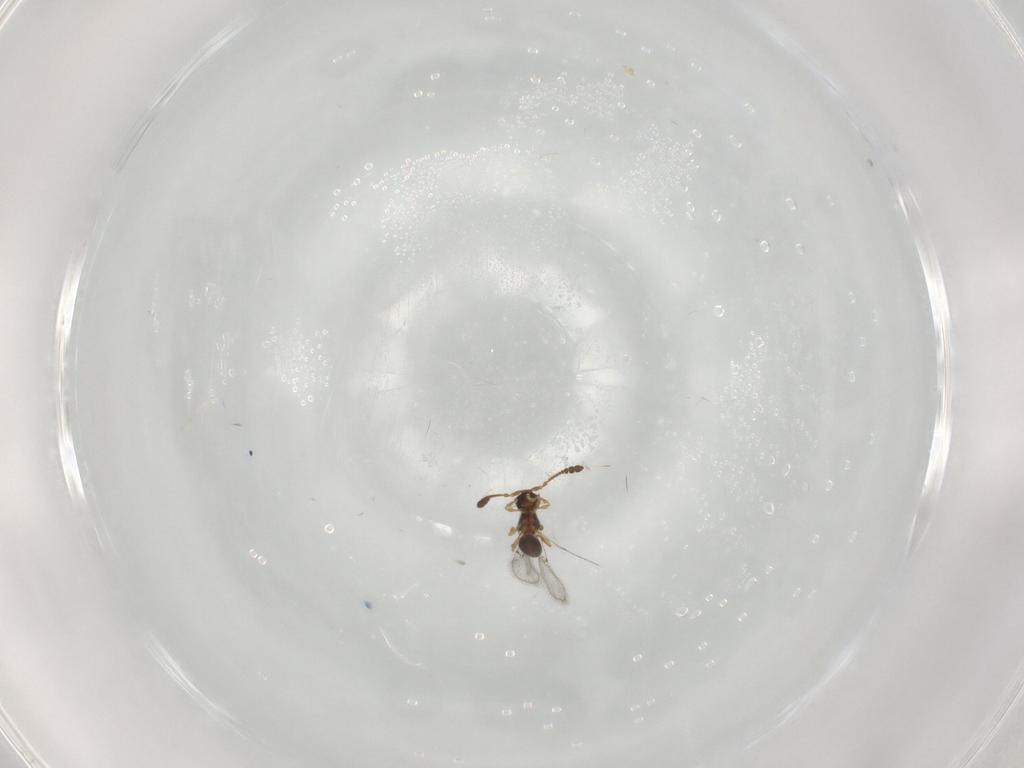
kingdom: Animalia
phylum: Arthropoda
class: Insecta
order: Hymenoptera
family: Diapriidae
